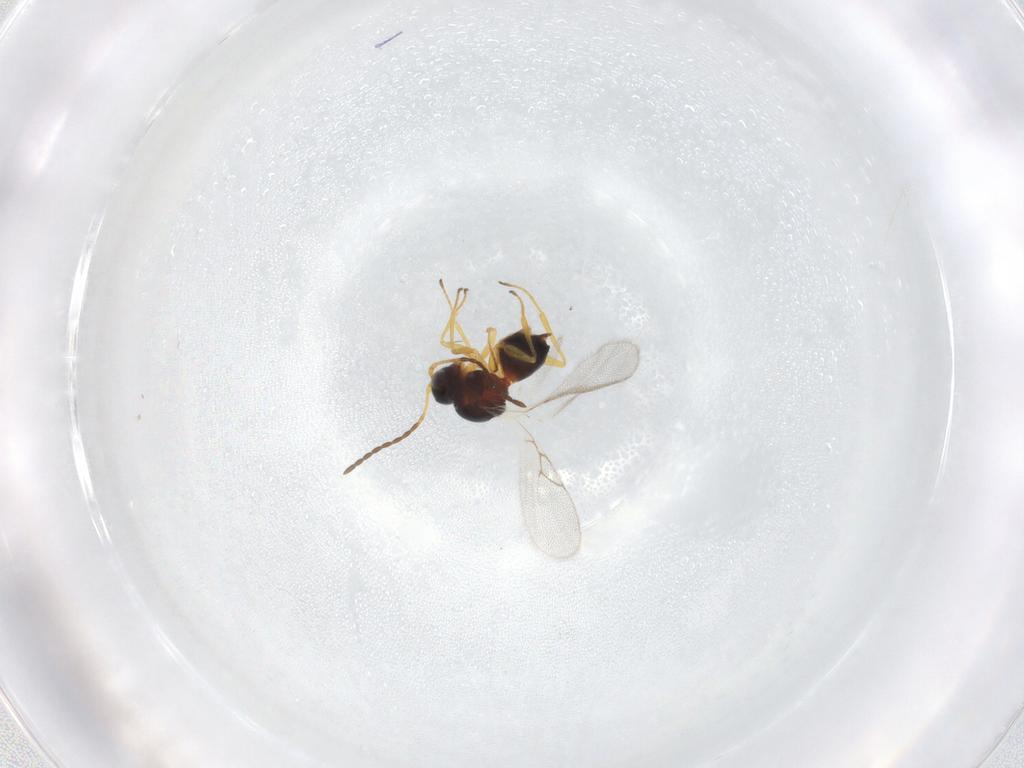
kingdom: Animalia
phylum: Arthropoda
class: Insecta
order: Hymenoptera
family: Figitidae
